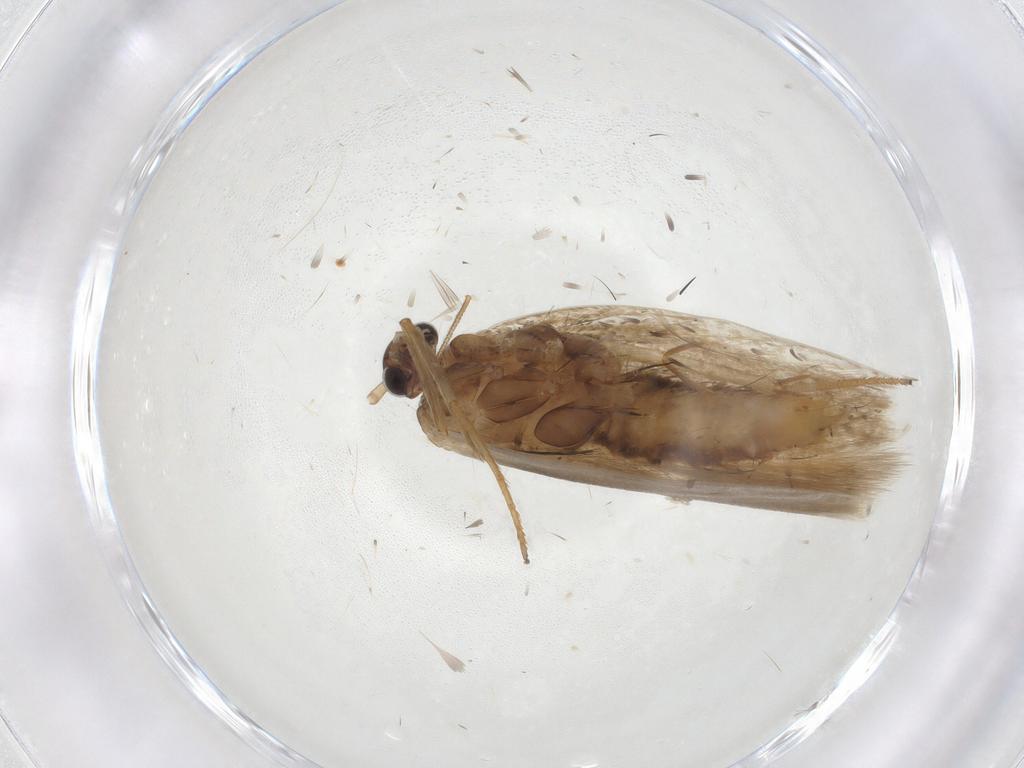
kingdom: Animalia
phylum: Arthropoda
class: Insecta
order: Lepidoptera
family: Erebidae
